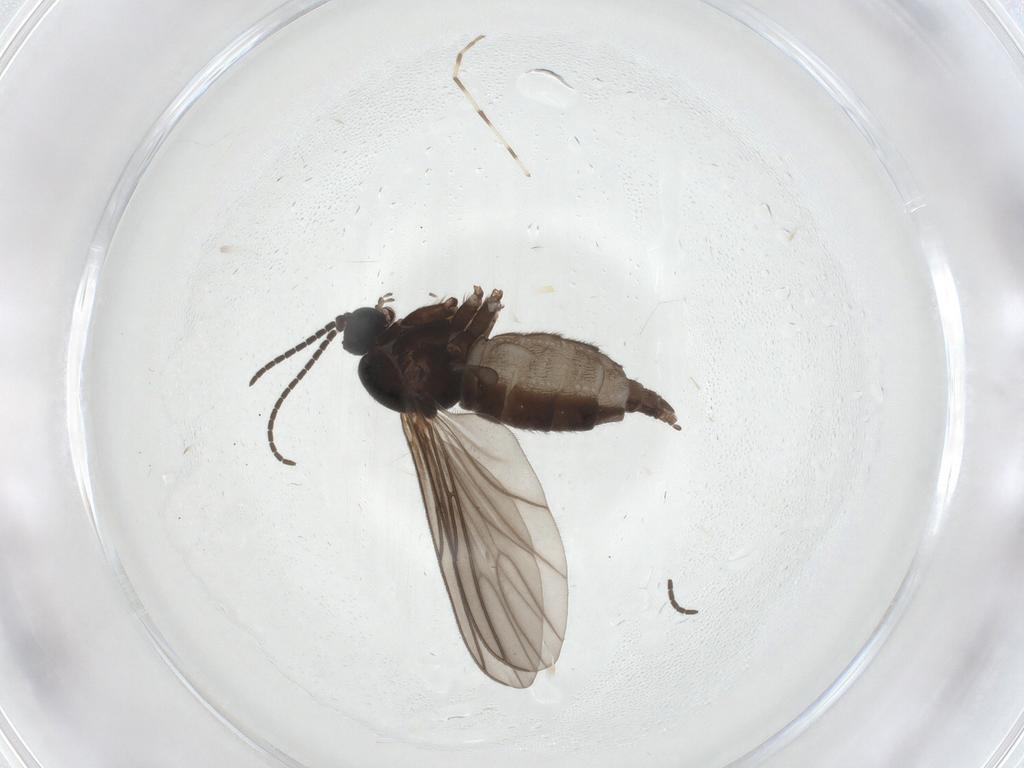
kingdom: Animalia
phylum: Arthropoda
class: Insecta
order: Diptera
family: Sciaridae
